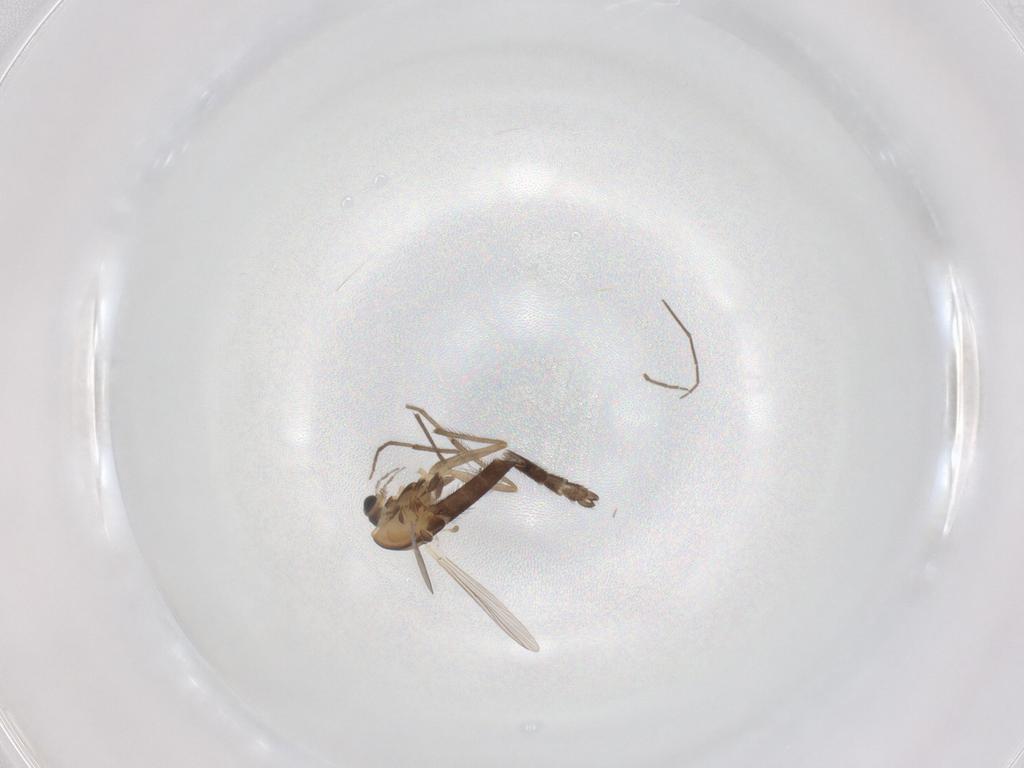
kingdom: Animalia
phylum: Arthropoda
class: Insecta
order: Diptera
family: Chironomidae
